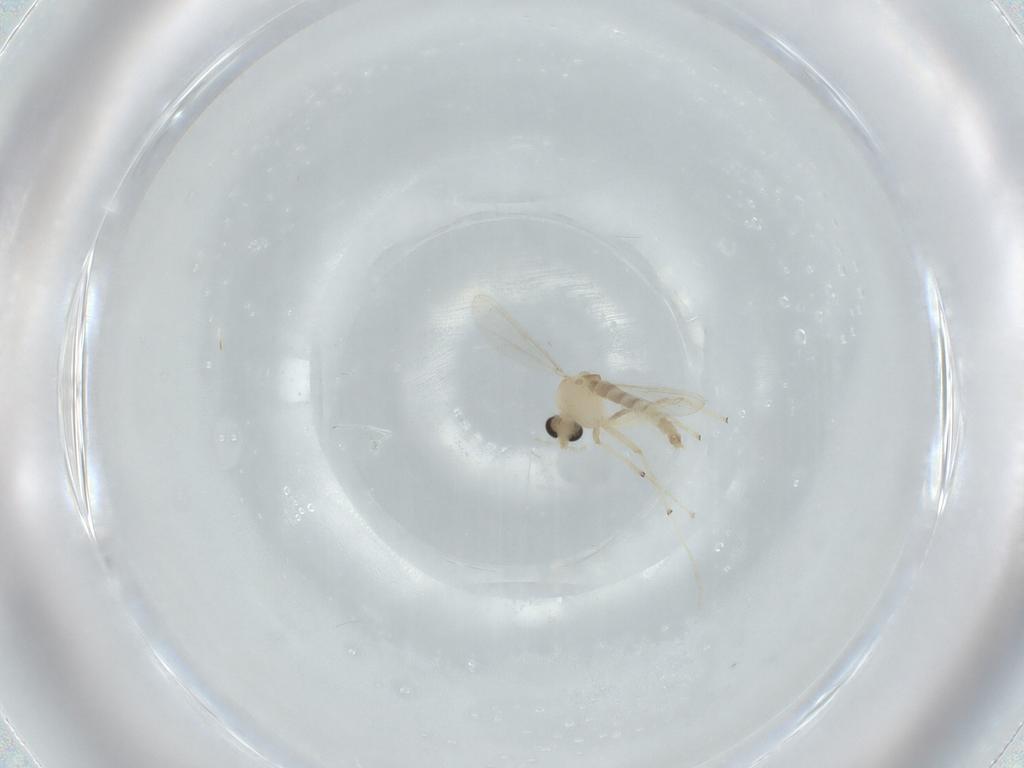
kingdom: Animalia
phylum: Arthropoda
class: Insecta
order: Diptera
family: Chironomidae
